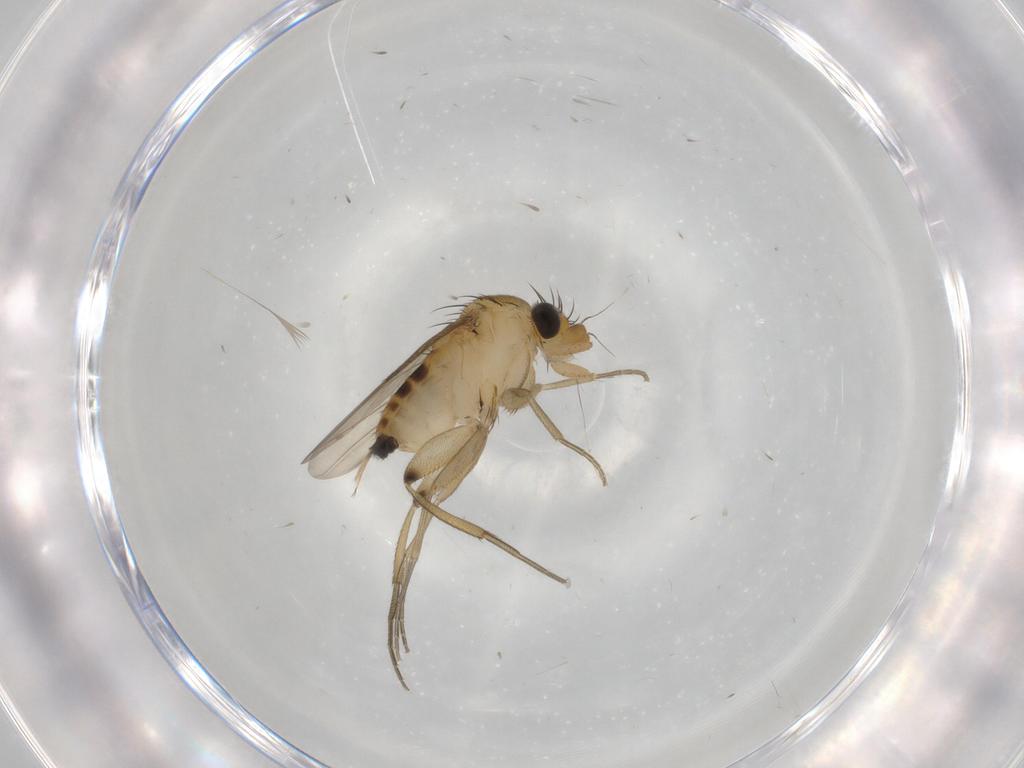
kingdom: Animalia
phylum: Arthropoda
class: Insecta
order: Diptera
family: Phoridae
